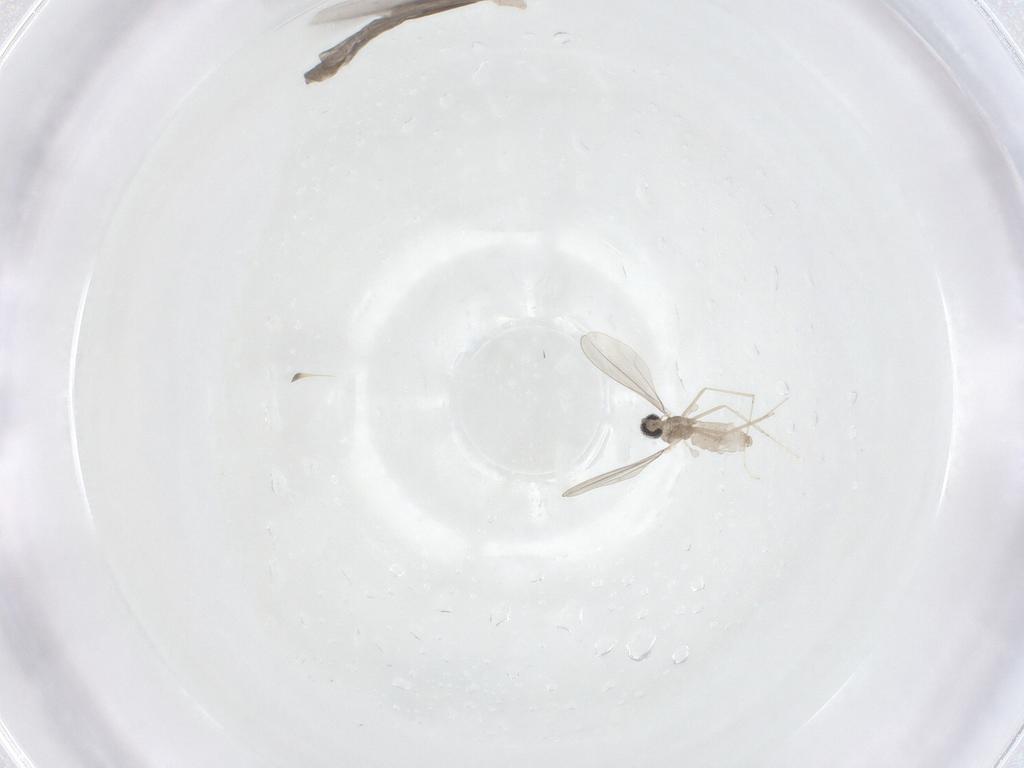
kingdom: Animalia
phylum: Arthropoda
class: Insecta
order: Diptera
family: Cecidomyiidae
